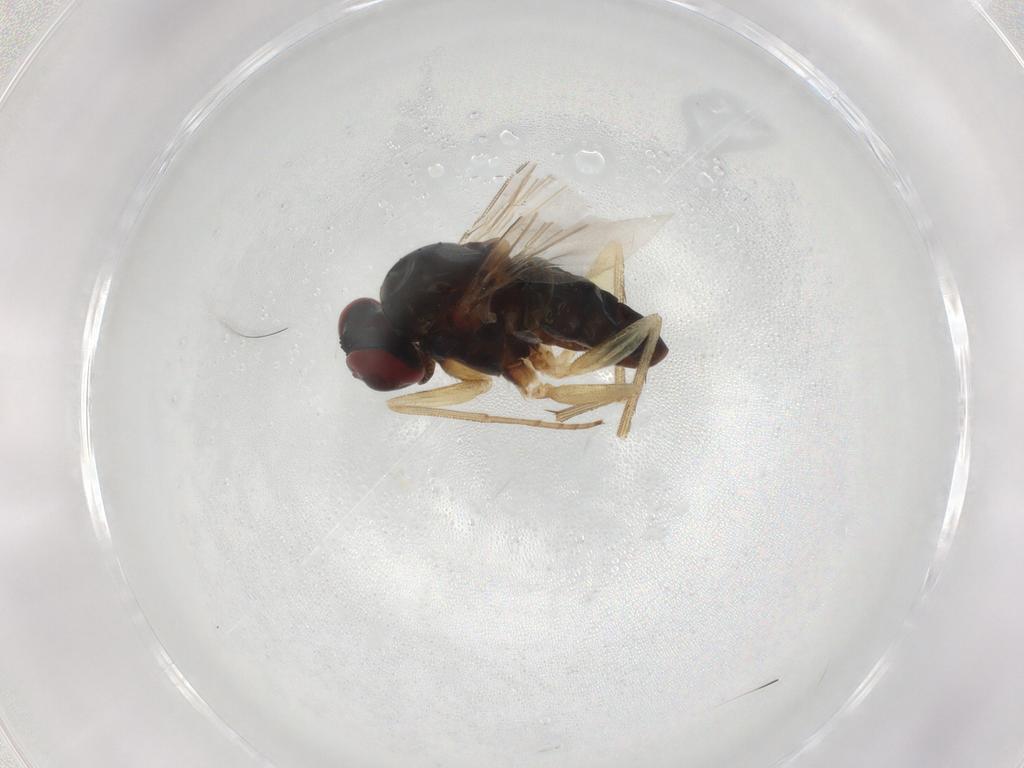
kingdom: Animalia
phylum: Arthropoda
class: Insecta
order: Diptera
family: Dolichopodidae
